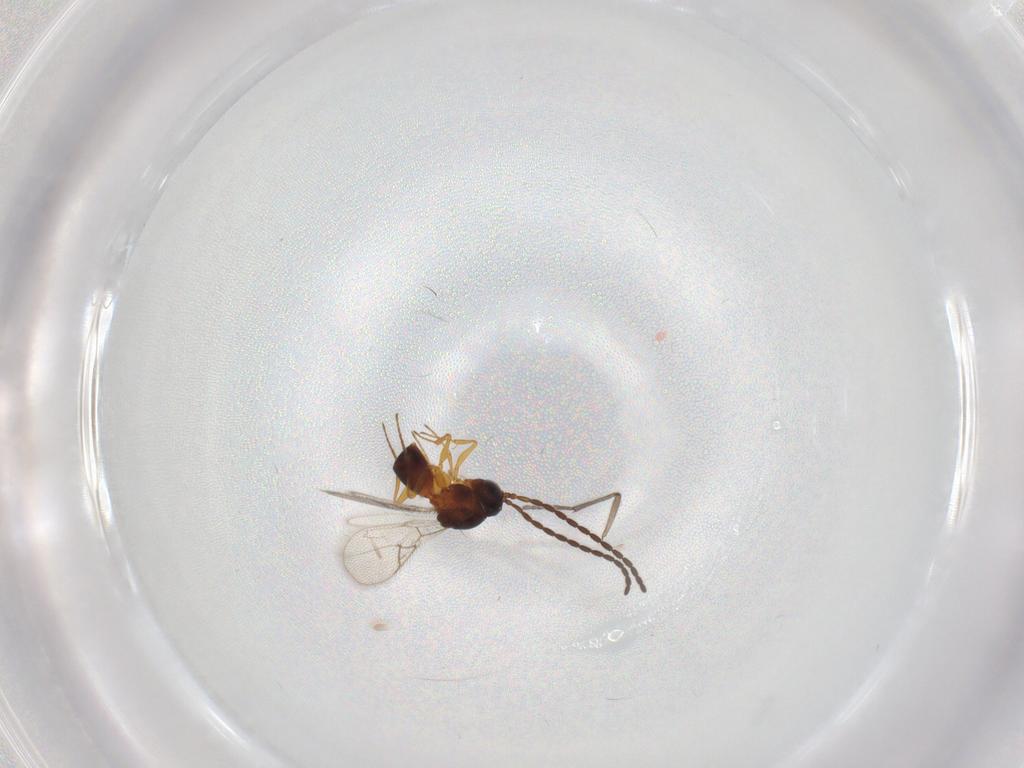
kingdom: Animalia
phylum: Arthropoda
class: Insecta
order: Hymenoptera
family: Figitidae
